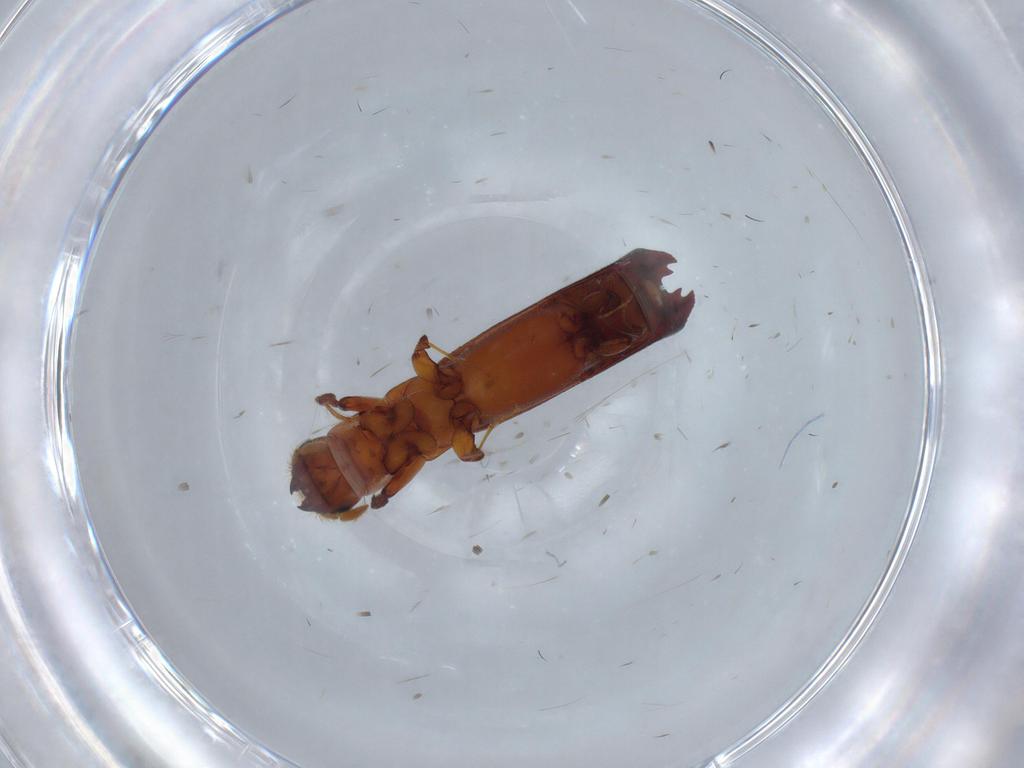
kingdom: Animalia
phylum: Arthropoda
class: Insecta
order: Coleoptera
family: Curculionidae
